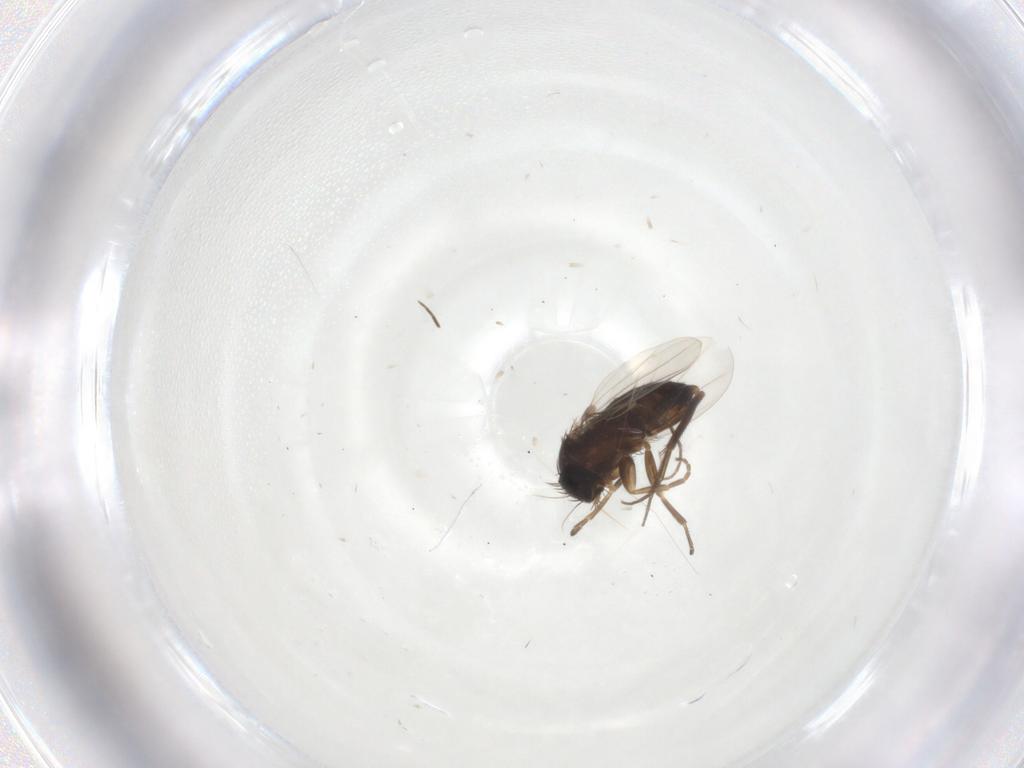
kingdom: Animalia
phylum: Arthropoda
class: Insecta
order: Diptera
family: Phoridae
